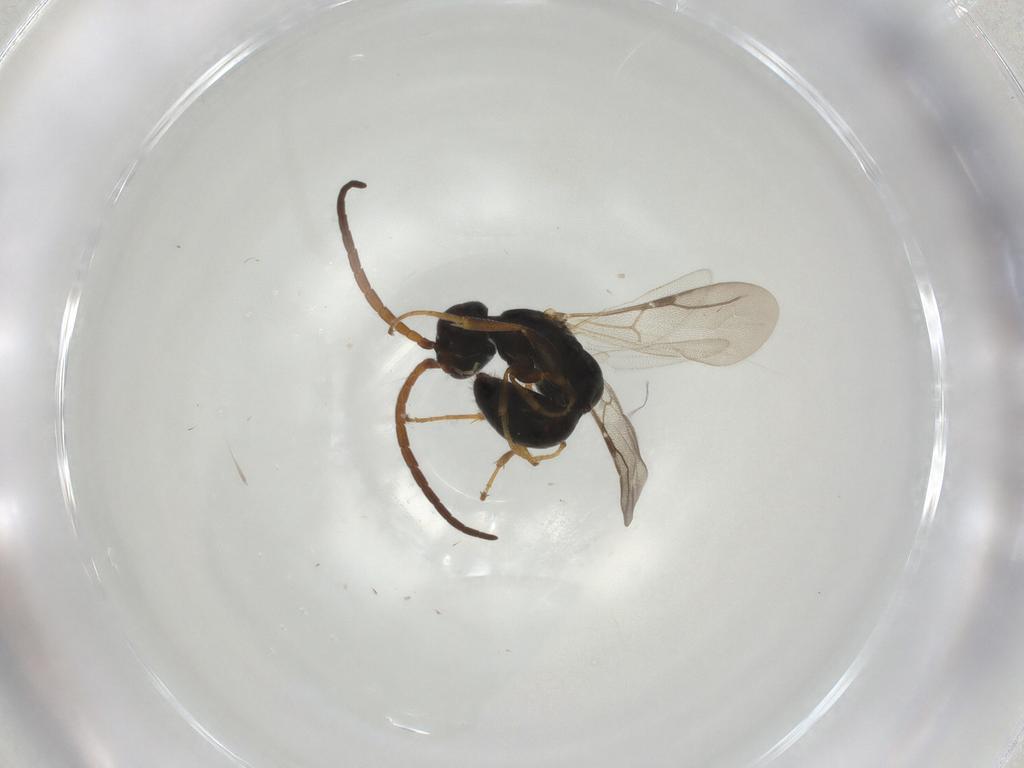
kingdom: Animalia
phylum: Arthropoda
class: Insecta
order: Hymenoptera
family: Bethylidae
